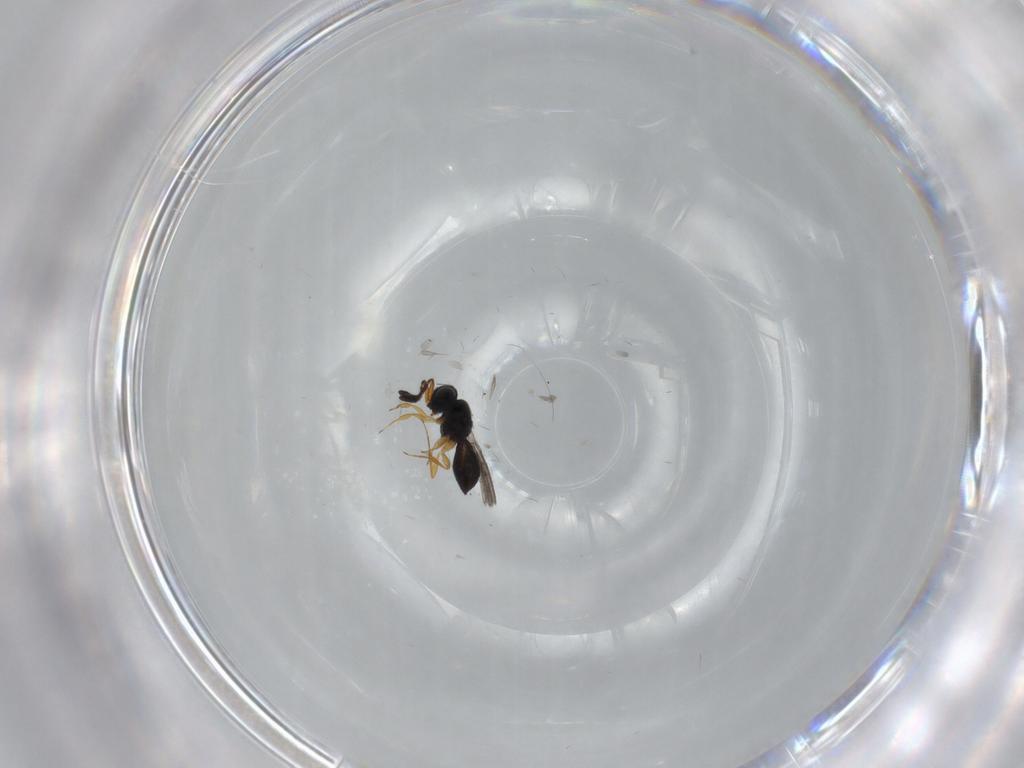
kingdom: Animalia
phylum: Arthropoda
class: Insecta
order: Hymenoptera
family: Scelionidae
